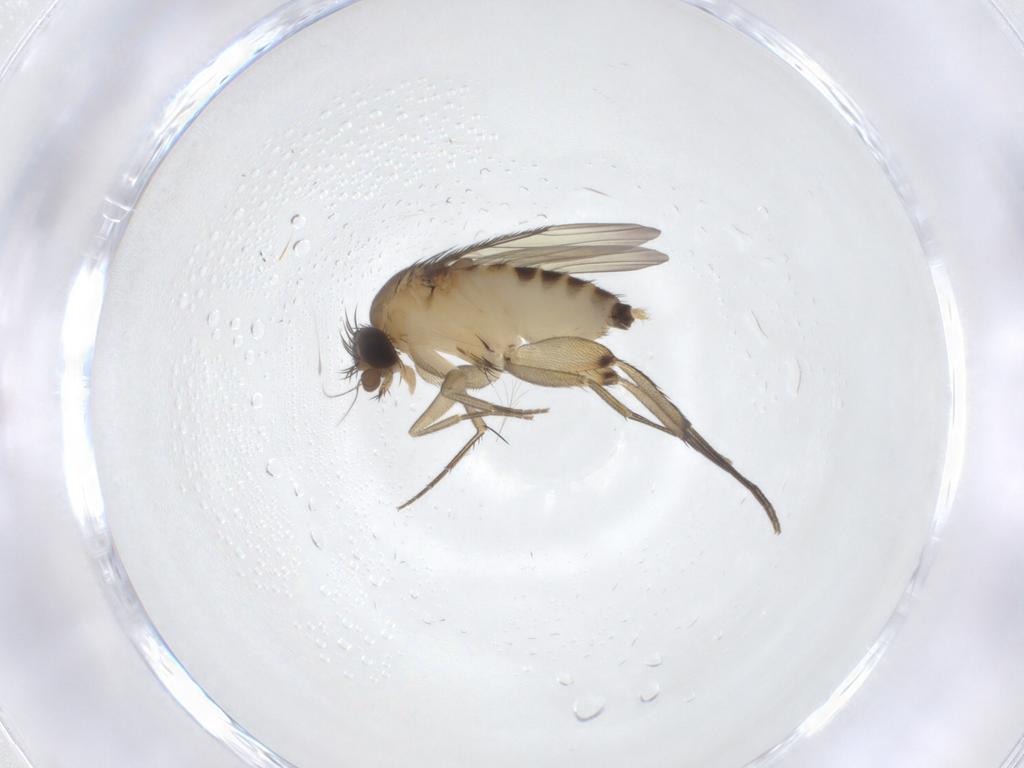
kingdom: Animalia
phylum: Arthropoda
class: Insecta
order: Diptera
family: Phoridae
